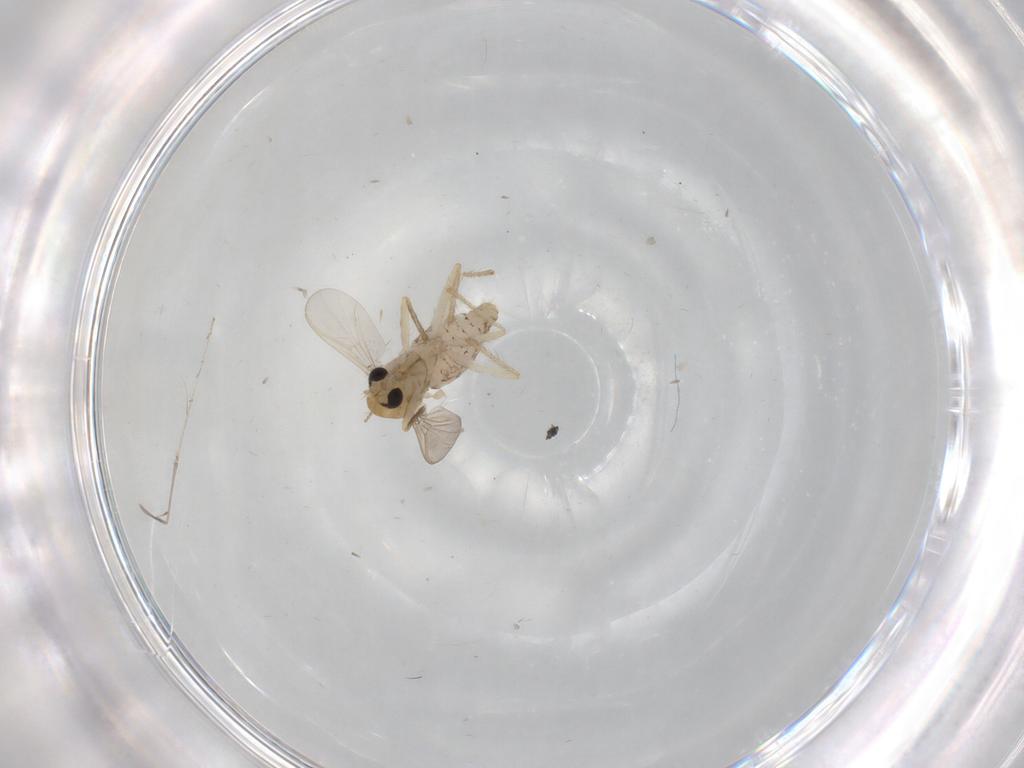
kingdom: Animalia
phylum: Arthropoda
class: Insecta
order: Diptera
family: Chironomidae
